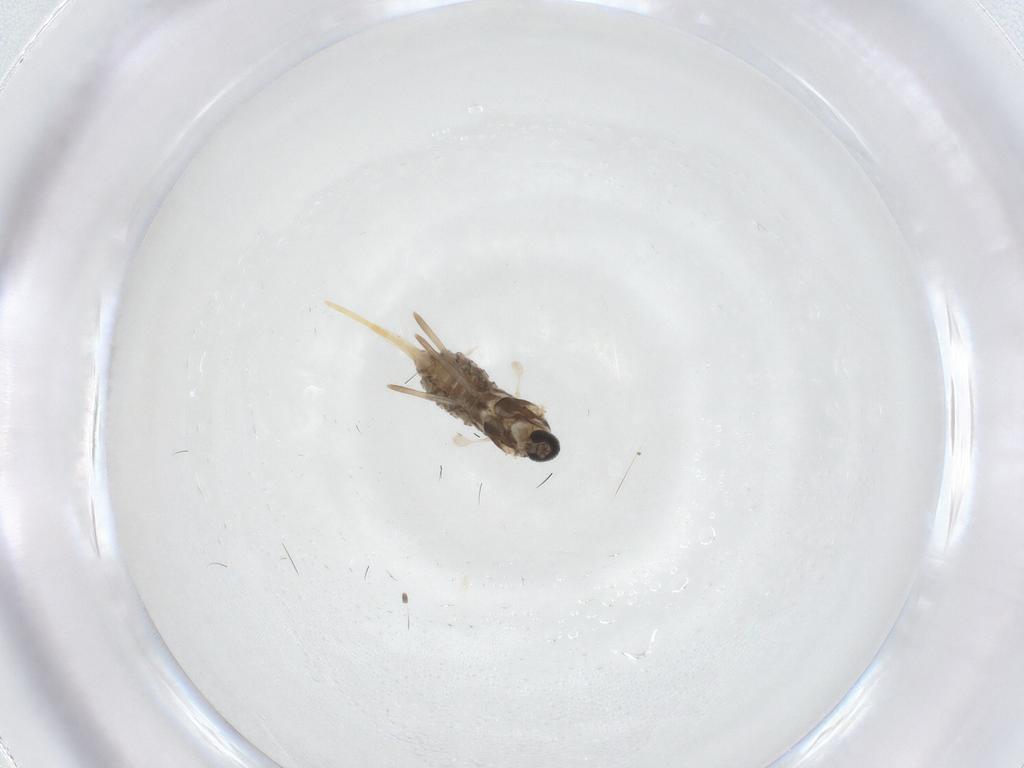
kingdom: Animalia
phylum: Arthropoda
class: Insecta
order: Diptera
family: Cecidomyiidae
